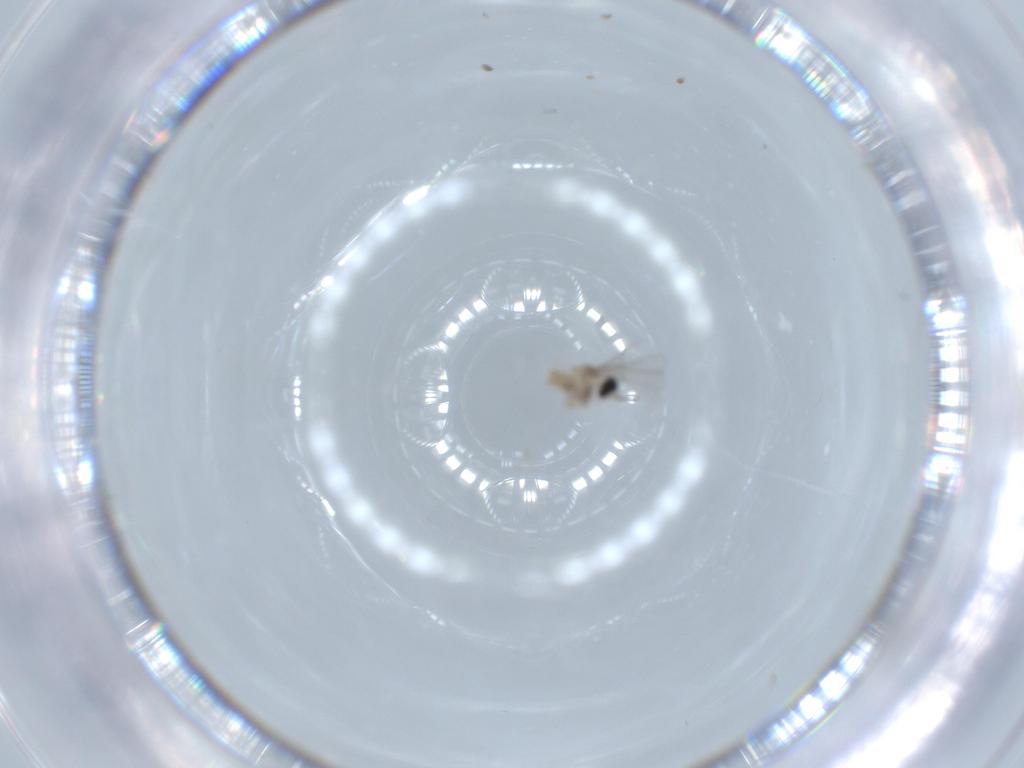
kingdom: Animalia
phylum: Arthropoda
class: Insecta
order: Diptera
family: Cecidomyiidae
